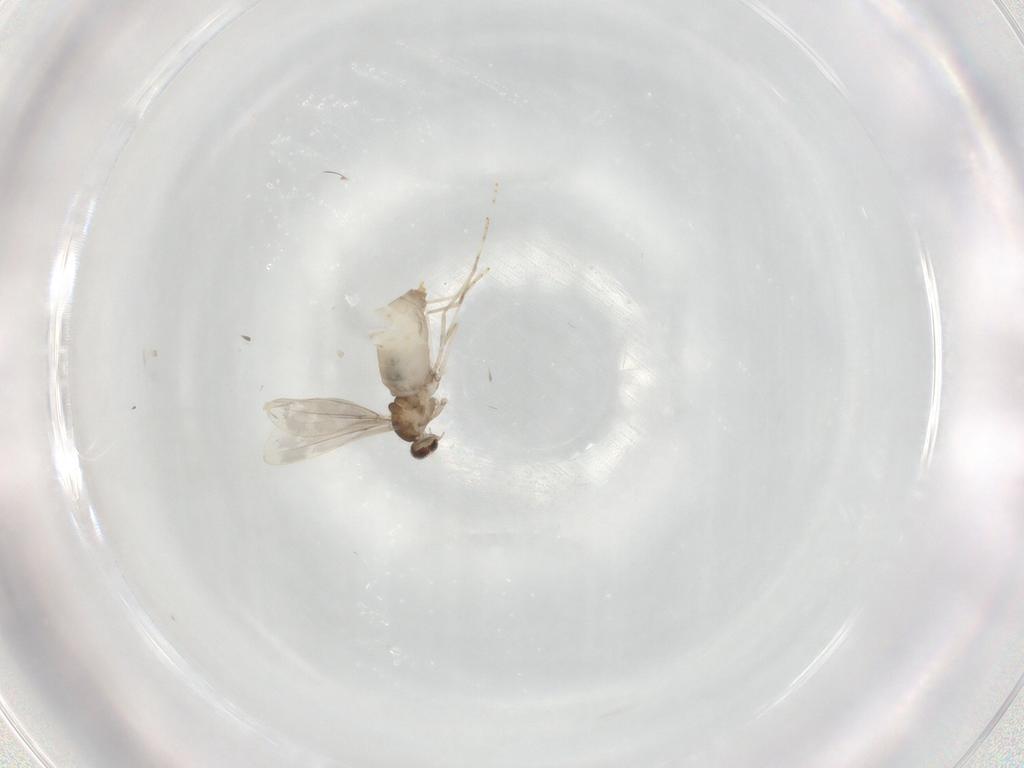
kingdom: Animalia
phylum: Arthropoda
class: Insecta
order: Diptera
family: Cecidomyiidae
